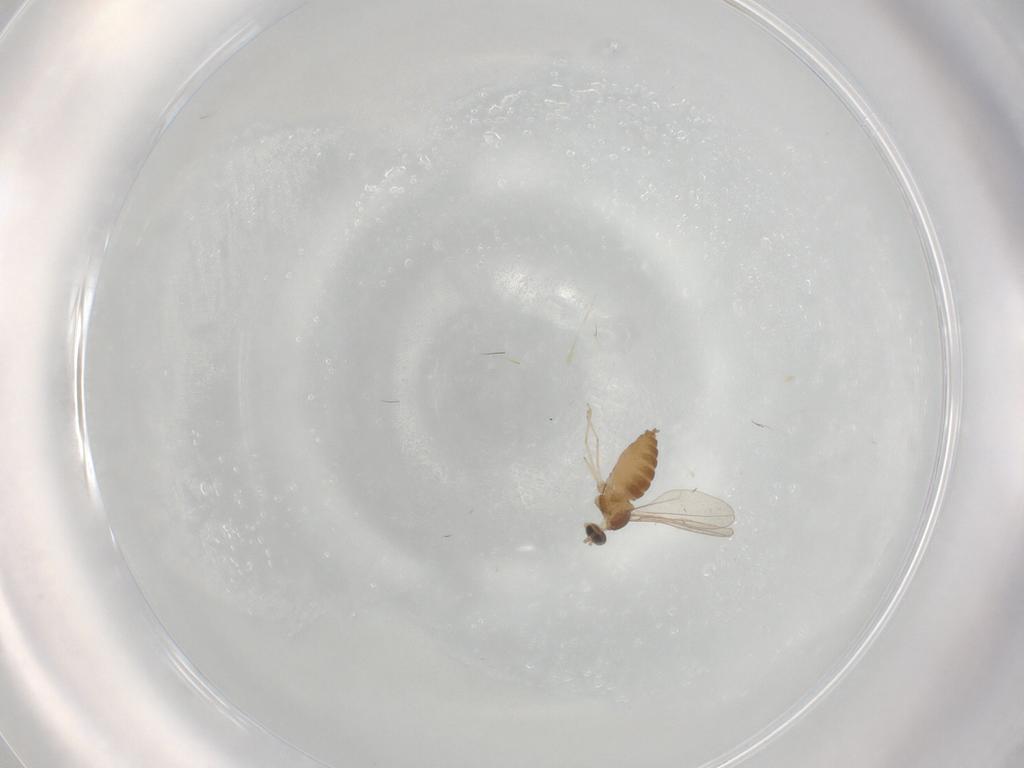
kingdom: Animalia
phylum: Arthropoda
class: Insecta
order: Diptera
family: Cecidomyiidae
